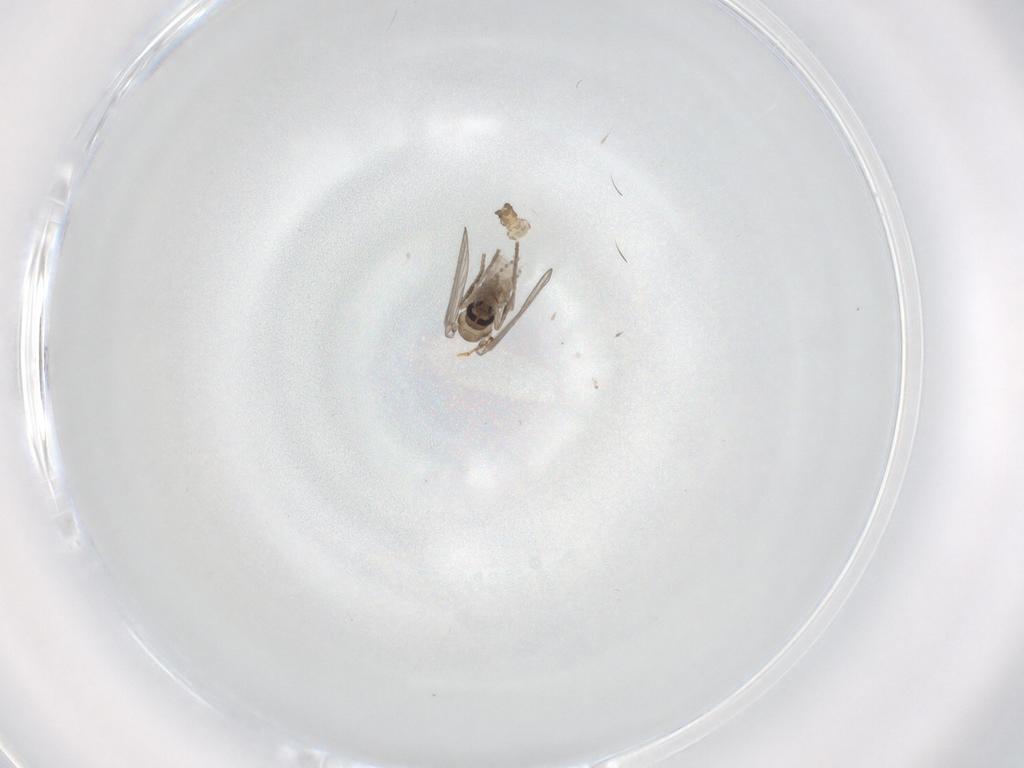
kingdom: Animalia
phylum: Arthropoda
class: Insecta
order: Diptera
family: Psychodidae
